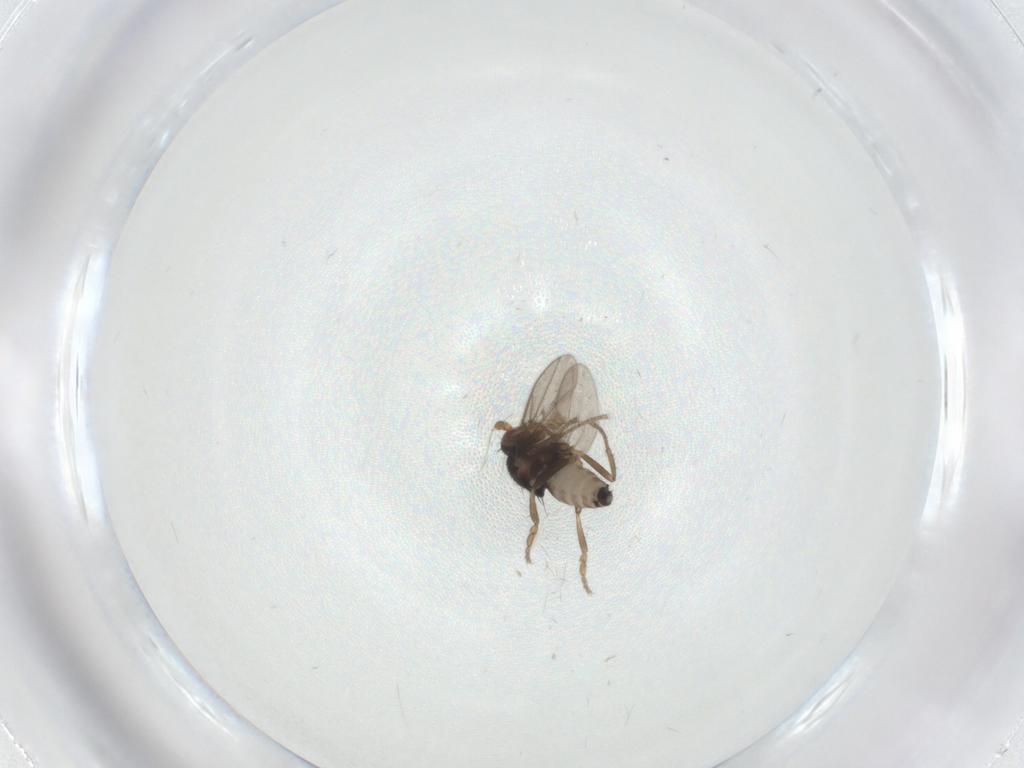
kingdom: Animalia
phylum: Arthropoda
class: Insecta
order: Diptera
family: Sphaeroceridae
